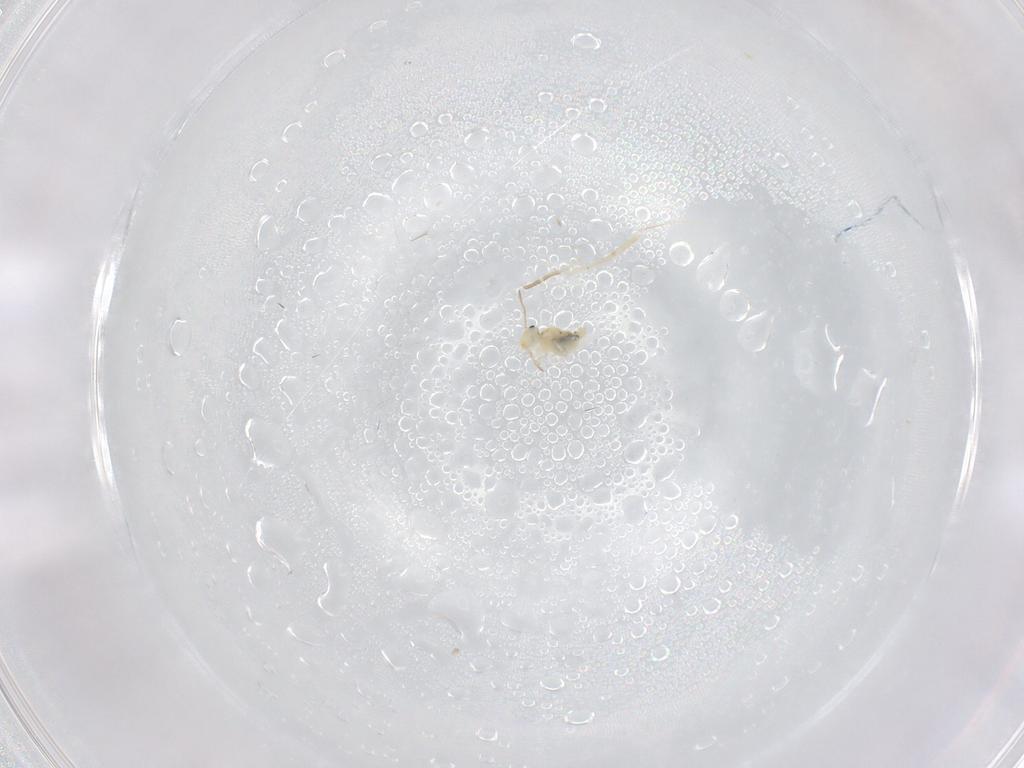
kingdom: Animalia
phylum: Arthropoda
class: Collembola
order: Symphypleona
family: Bourletiellidae
